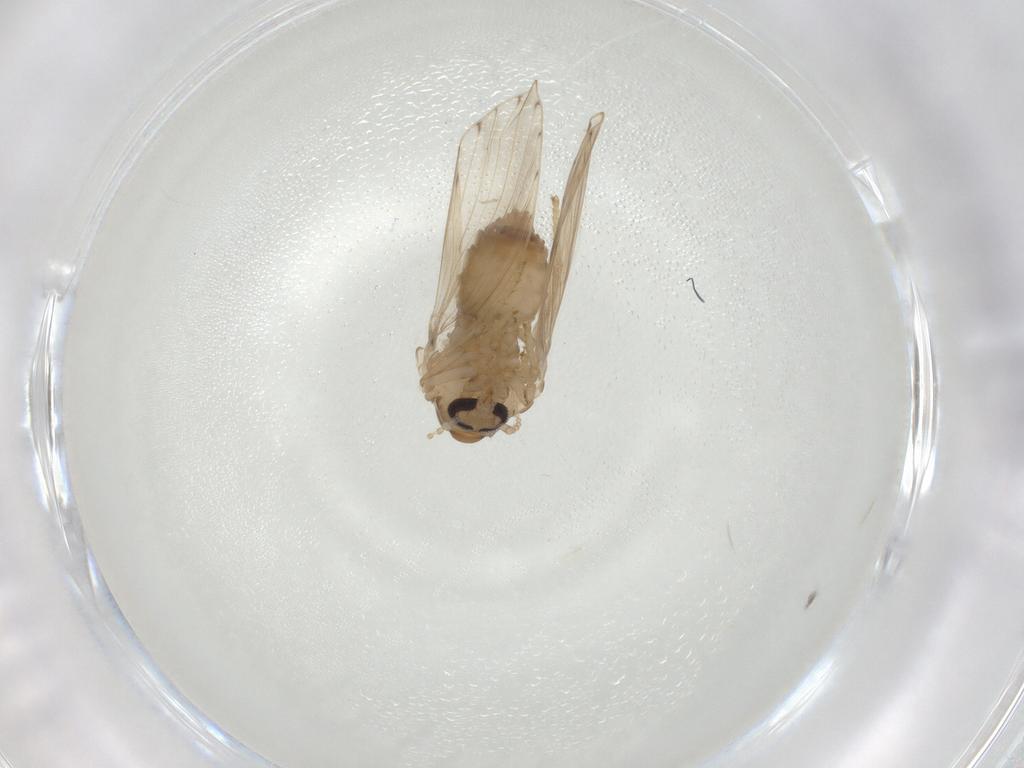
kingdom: Animalia
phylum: Arthropoda
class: Insecta
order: Diptera
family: Psychodidae
